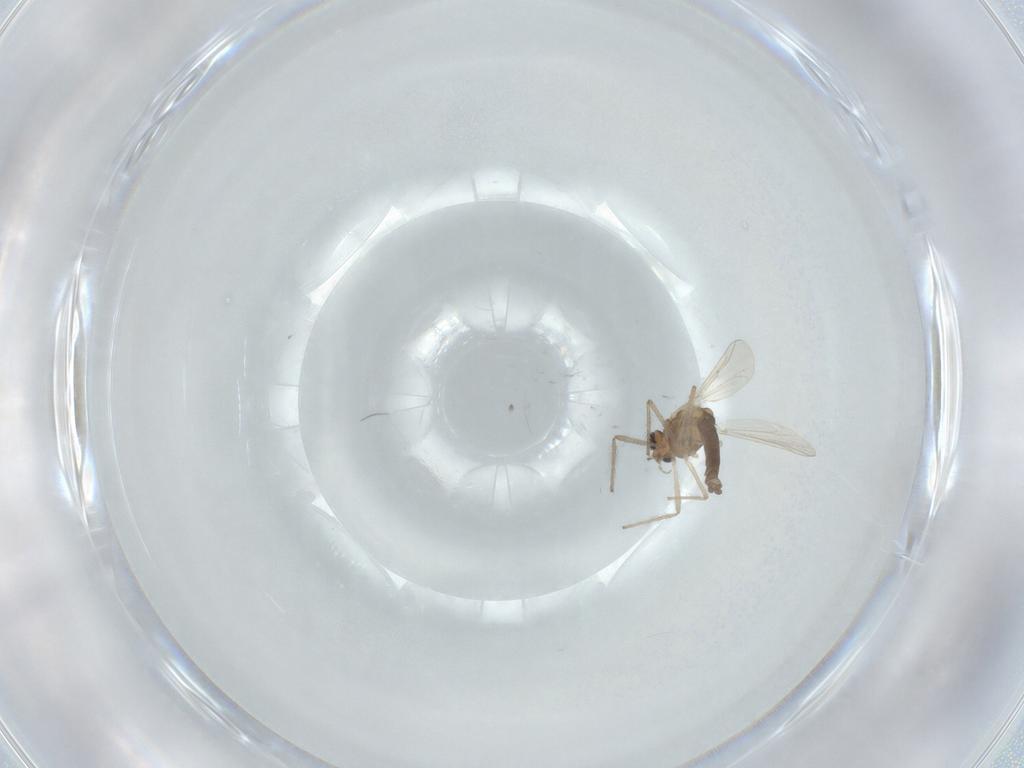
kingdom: Animalia
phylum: Arthropoda
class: Insecta
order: Diptera
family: Chironomidae
